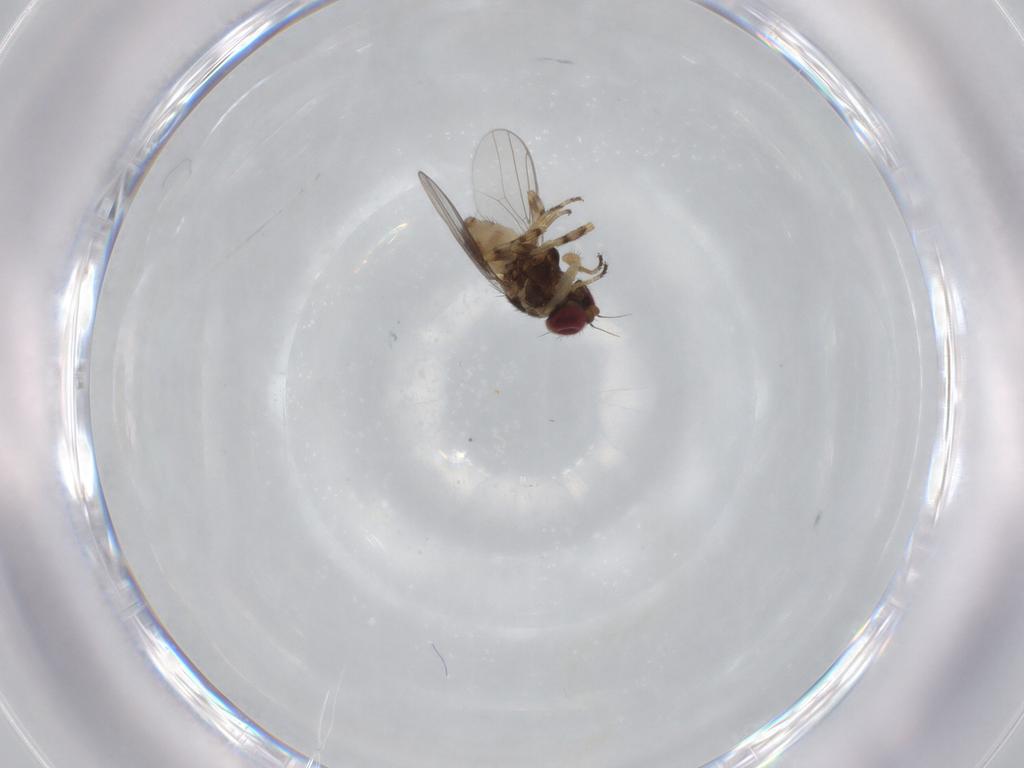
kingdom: Animalia
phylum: Arthropoda
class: Insecta
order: Diptera
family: Chloropidae
